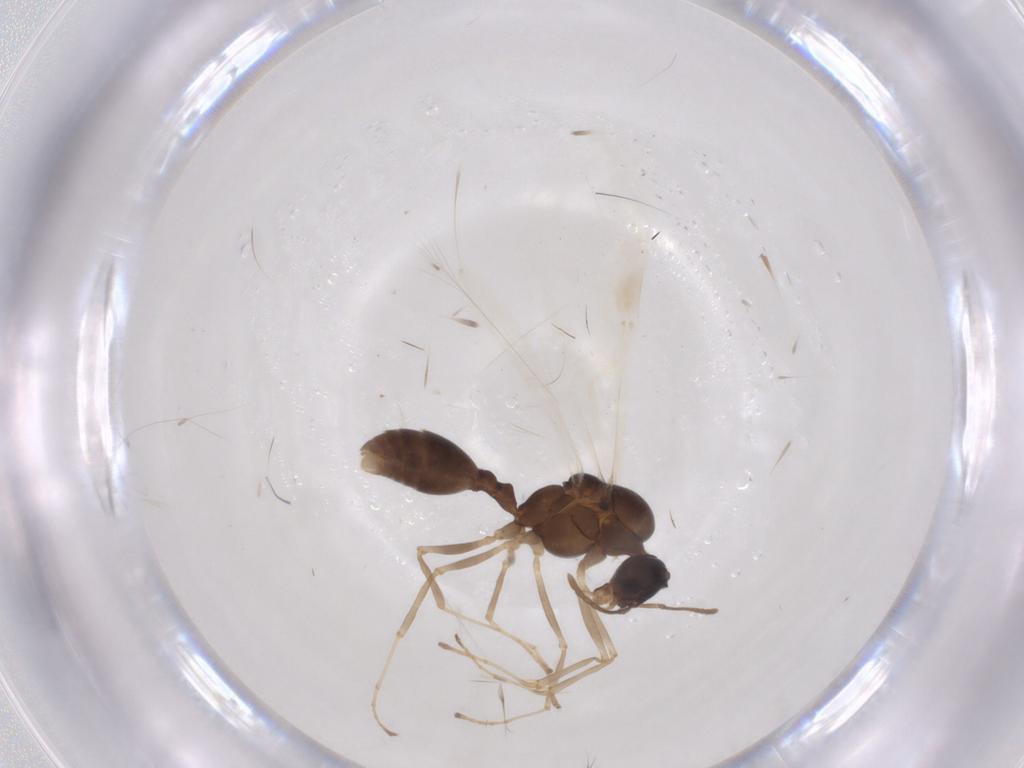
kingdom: Animalia
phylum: Arthropoda
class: Insecta
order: Hymenoptera
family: Formicidae
